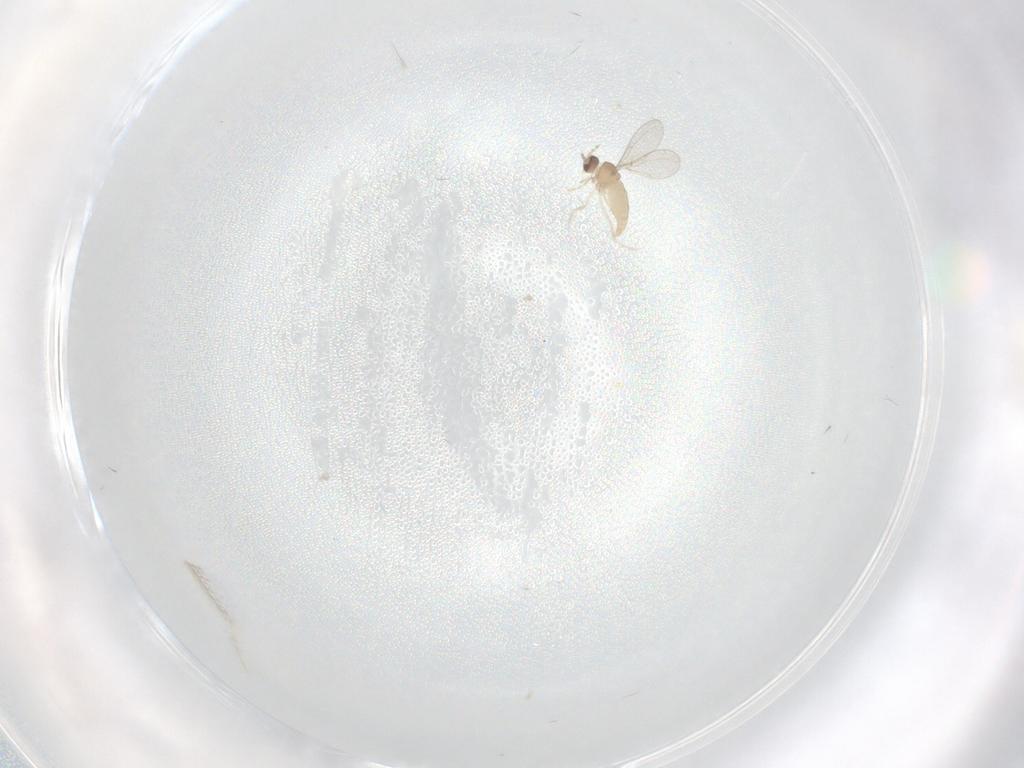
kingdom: Animalia
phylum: Arthropoda
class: Insecta
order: Diptera
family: Cecidomyiidae
